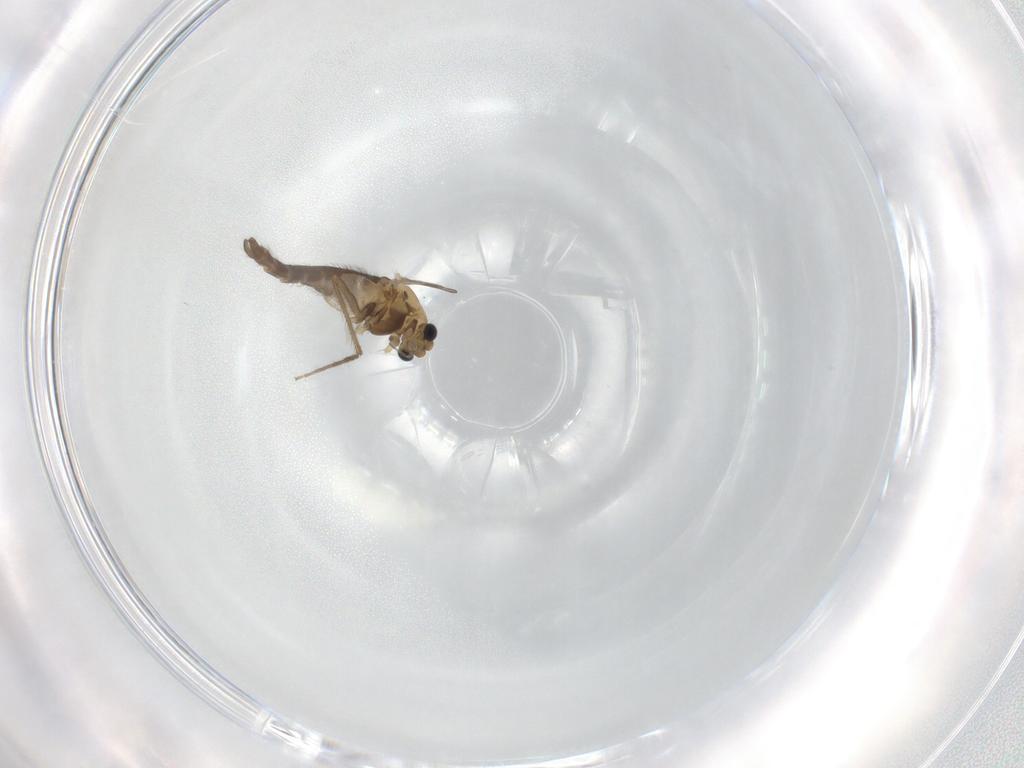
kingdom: Animalia
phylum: Arthropoda
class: Insecta
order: Diptera
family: Chironomidae
